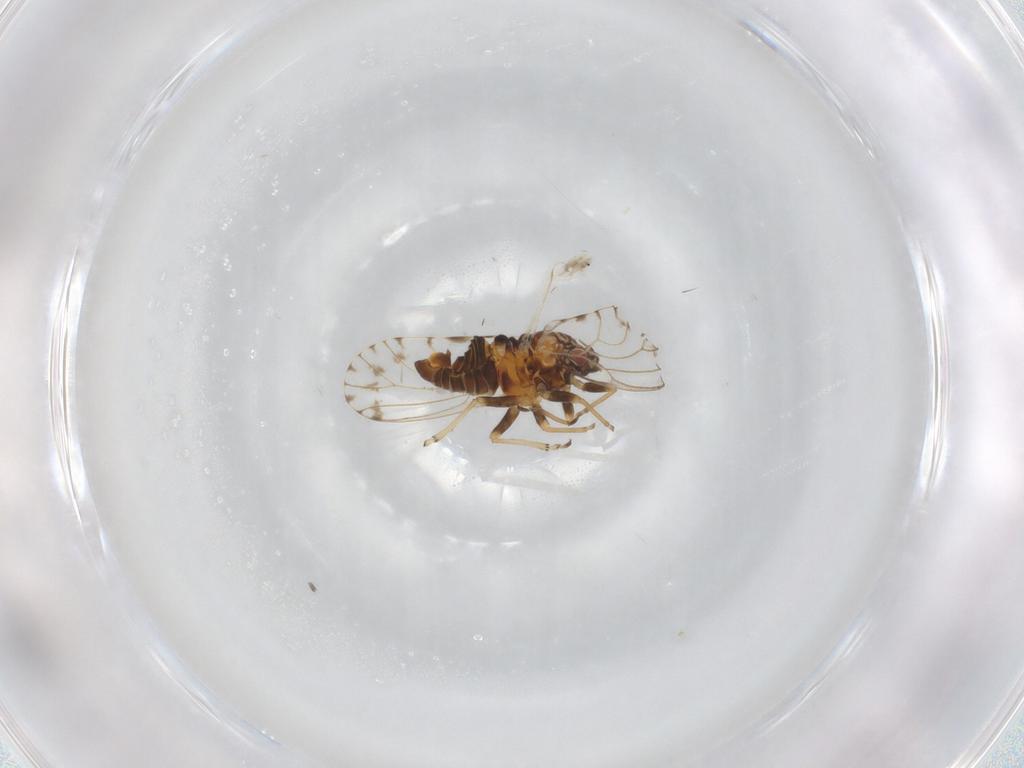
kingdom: Animalia
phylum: Arthropoda
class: Insecta
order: Hemiptera
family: Psyllidae
